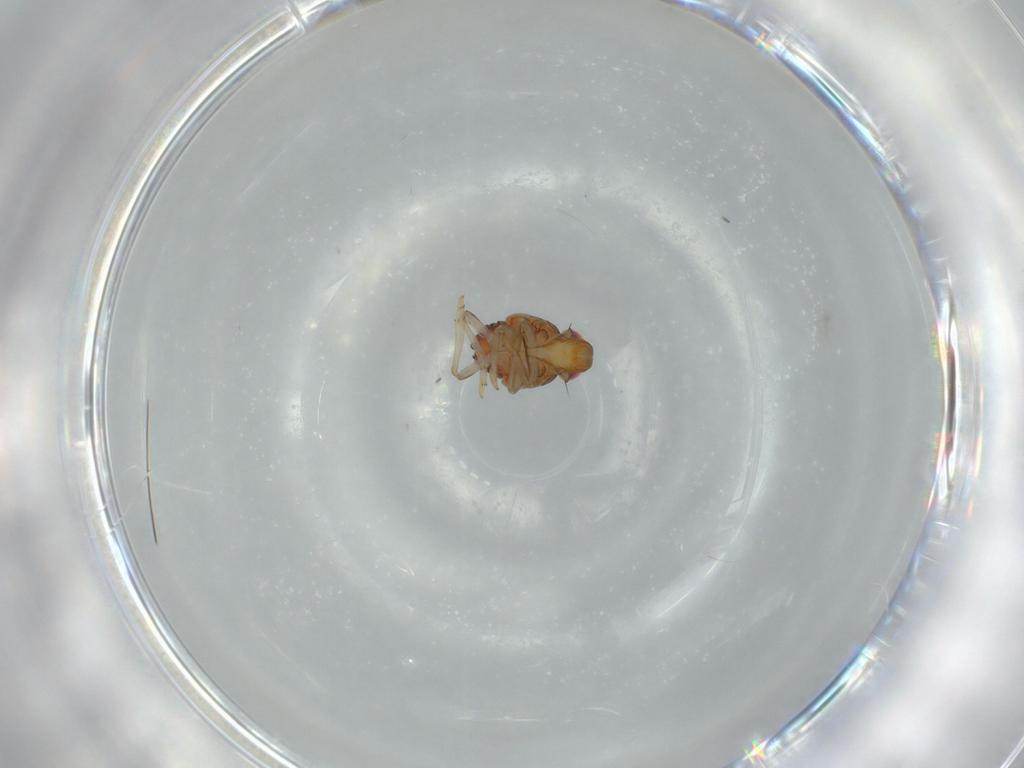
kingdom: Animalia
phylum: Arthropoda
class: Insecta
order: Hemiptera
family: Issidae
